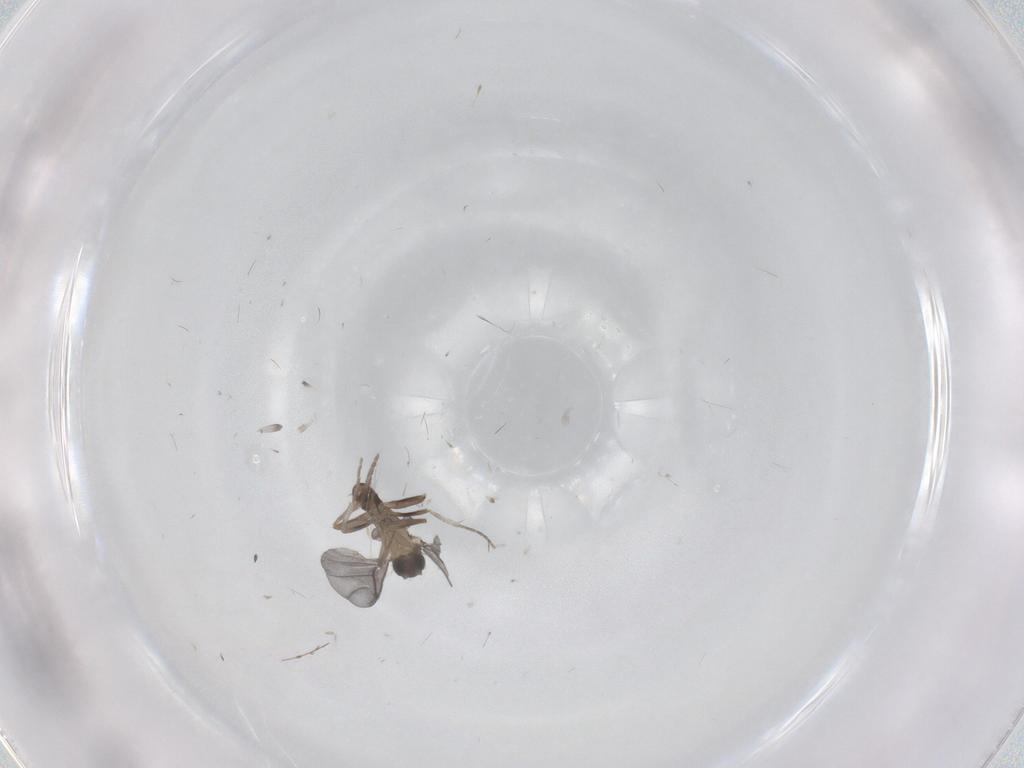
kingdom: Animalia
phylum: Arthropoda
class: Insecta
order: Diptera
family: Phoridae
